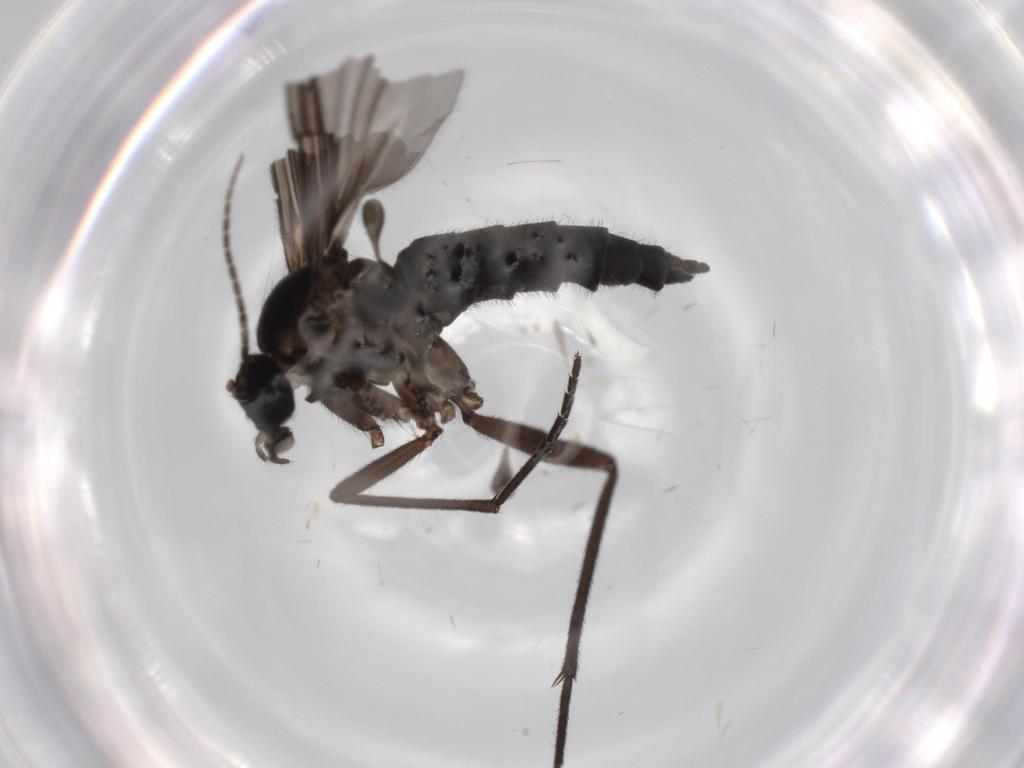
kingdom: Animalia
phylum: Arthropoda
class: Insecta
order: Diptera
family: Sciaridae
